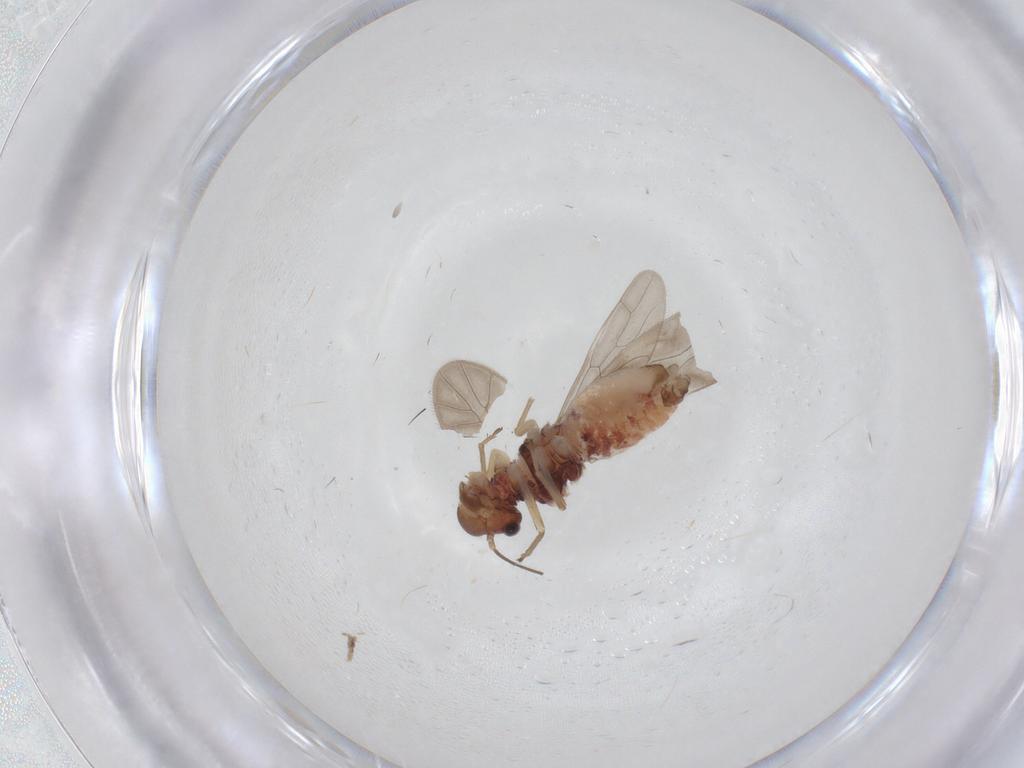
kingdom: Animalia
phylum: Arthropoda
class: Insecta
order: Psocodea
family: Caeciliusidae
